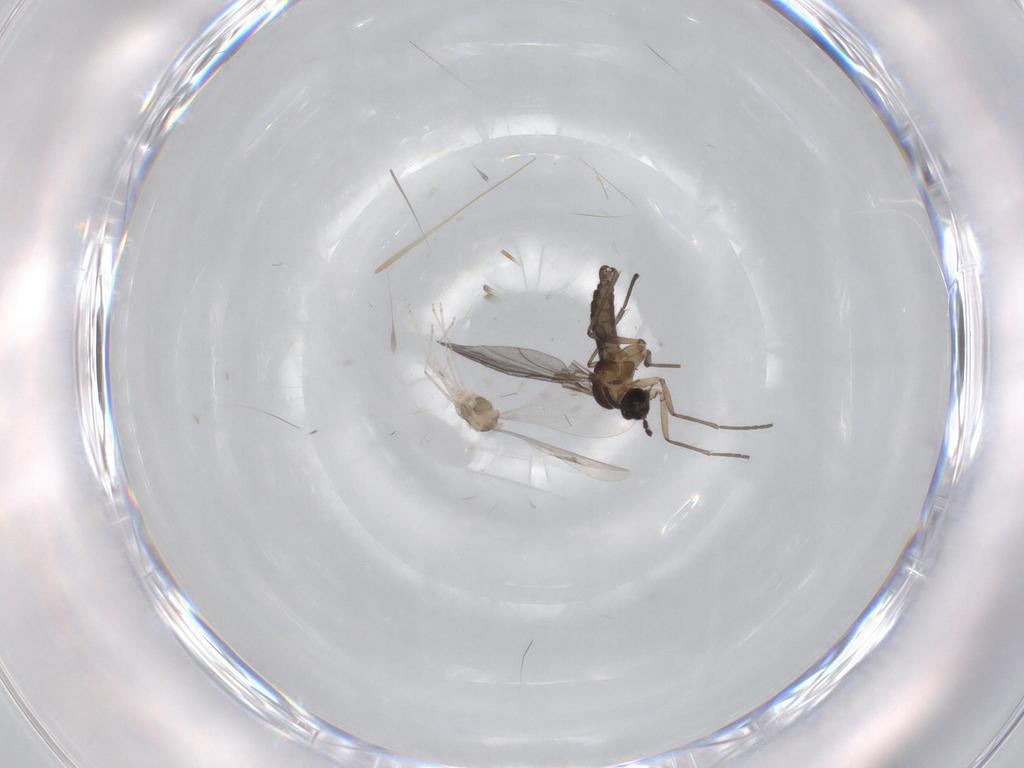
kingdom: Animalia
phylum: Arthropoda
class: Insecta
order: Diptera
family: Sciaridae
